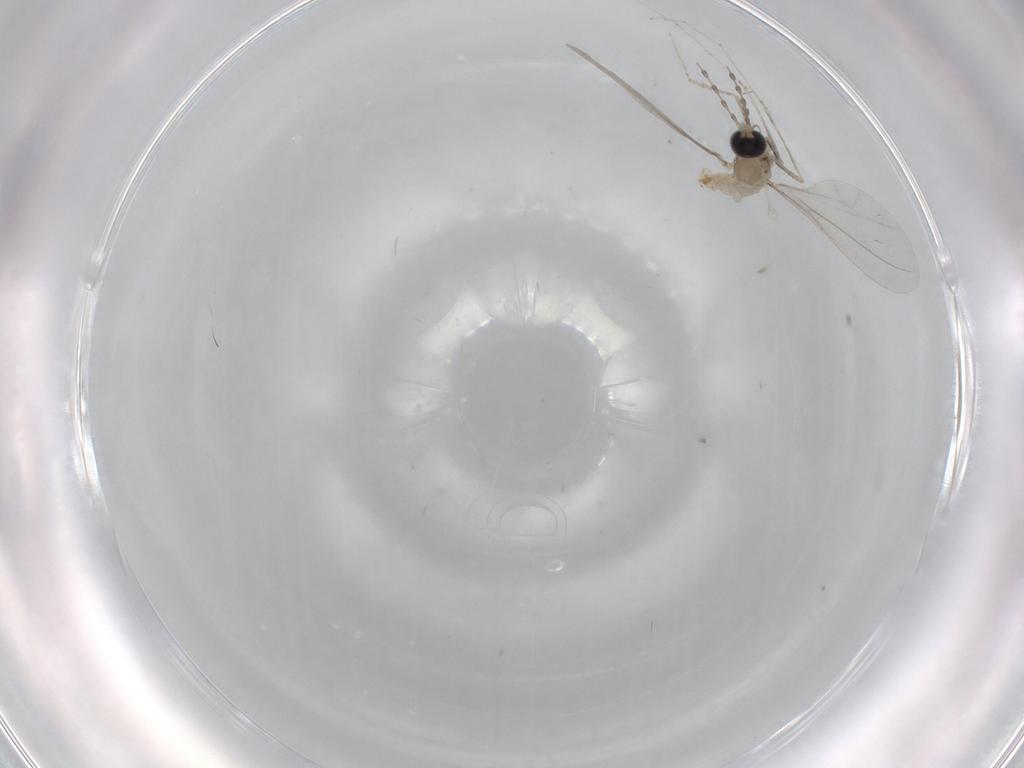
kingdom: Animalia
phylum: Arthropoda
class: Insecta
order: Diptera
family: Cecidomyiidae
